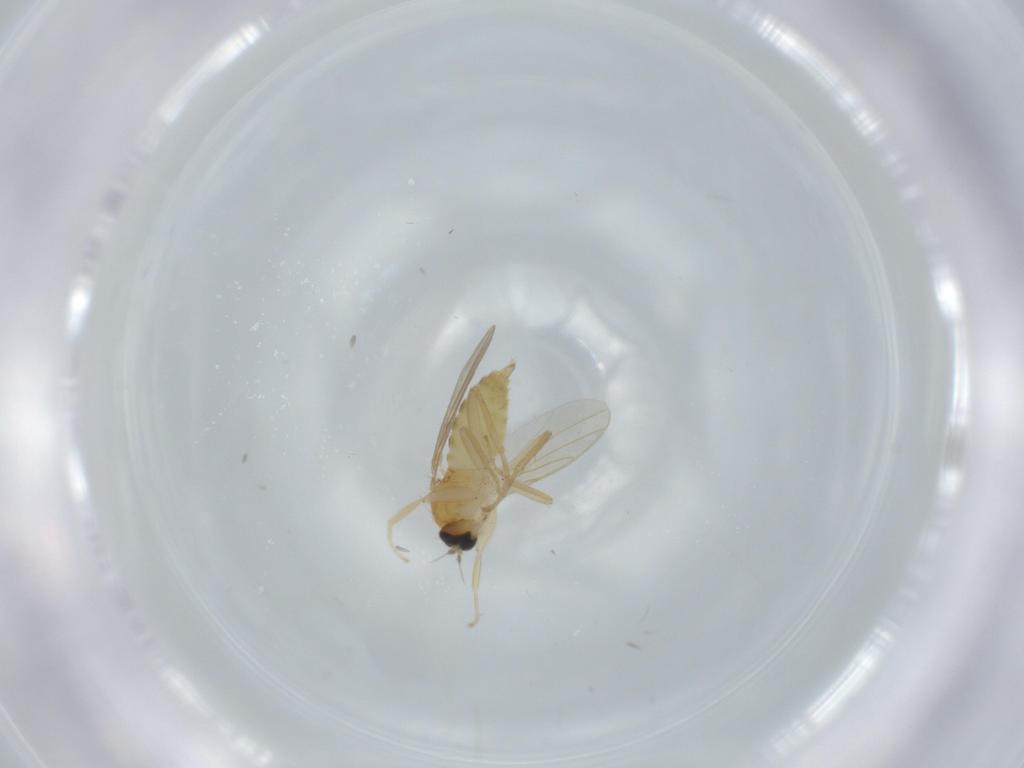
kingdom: Animalia
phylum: Arthropoda
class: Insecta
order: Diptera
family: Hybotidae
